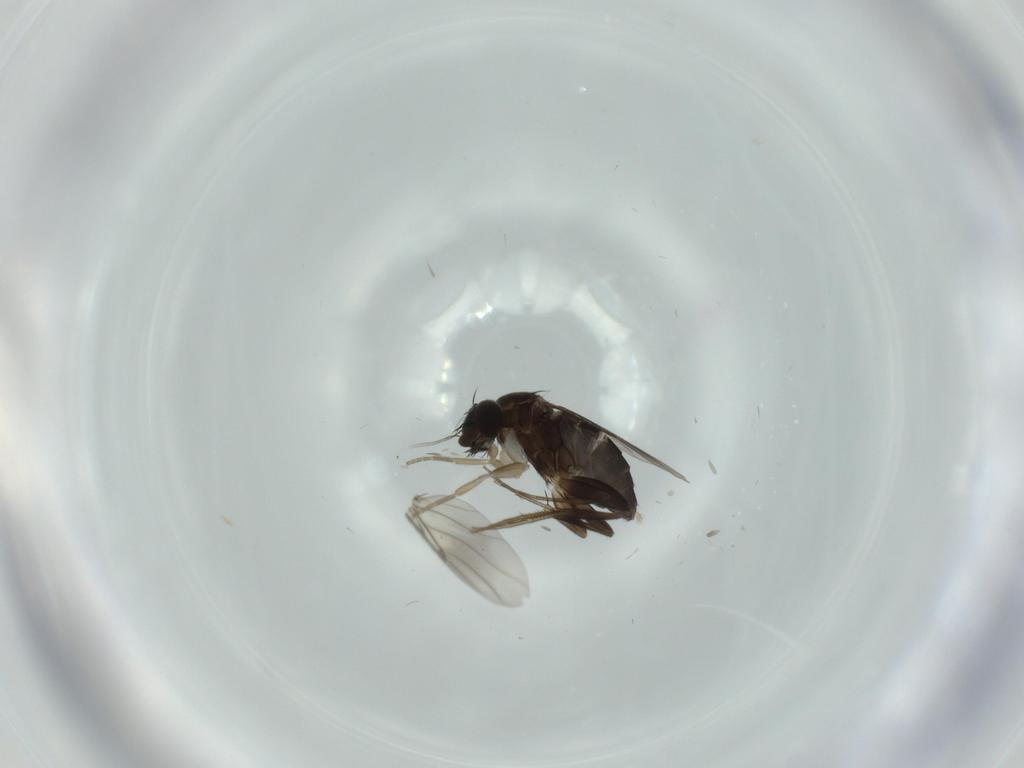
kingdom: Animalia
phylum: Arthropoda
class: Insecta
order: Diptera
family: Phoridae
